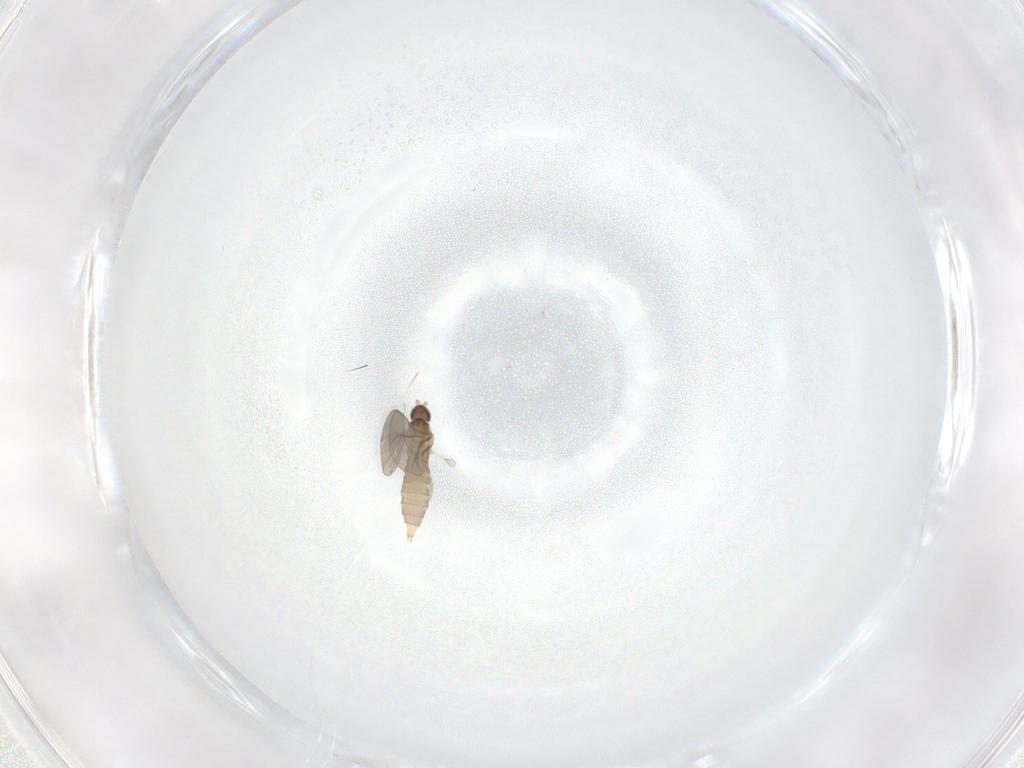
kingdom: Animalia
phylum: Arthropoda
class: Insecta
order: Diptera
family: Cecidomyiidae
